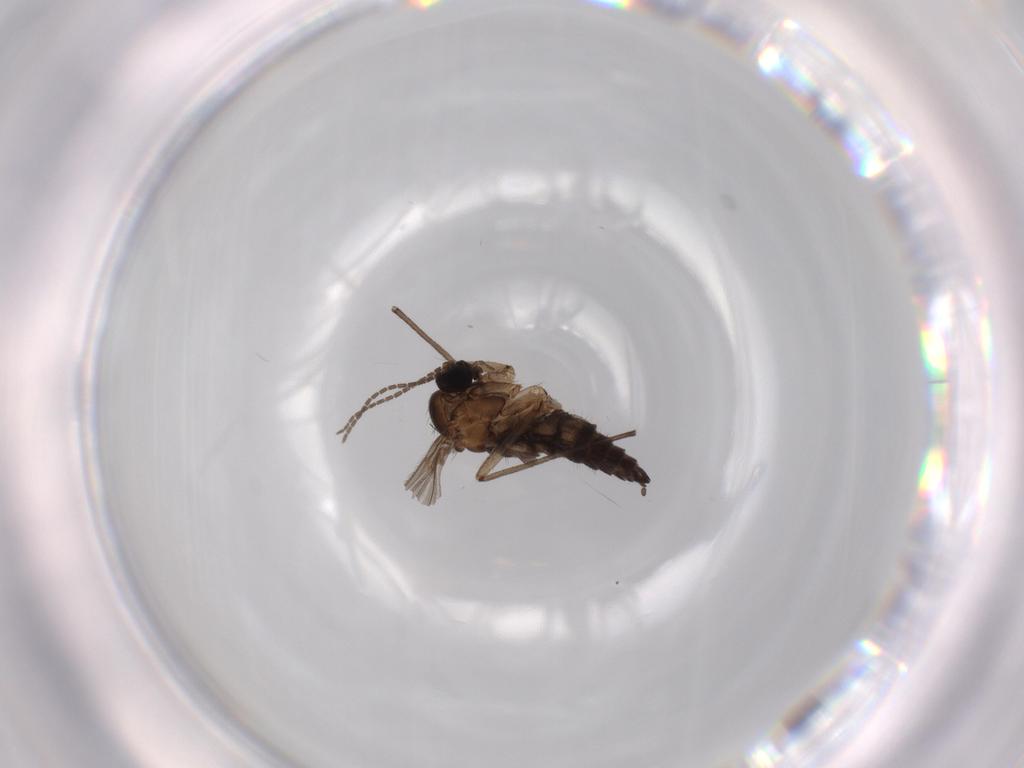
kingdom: Animalia
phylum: Arthropoda
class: Insecta
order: Diptera
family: Sciaridae
